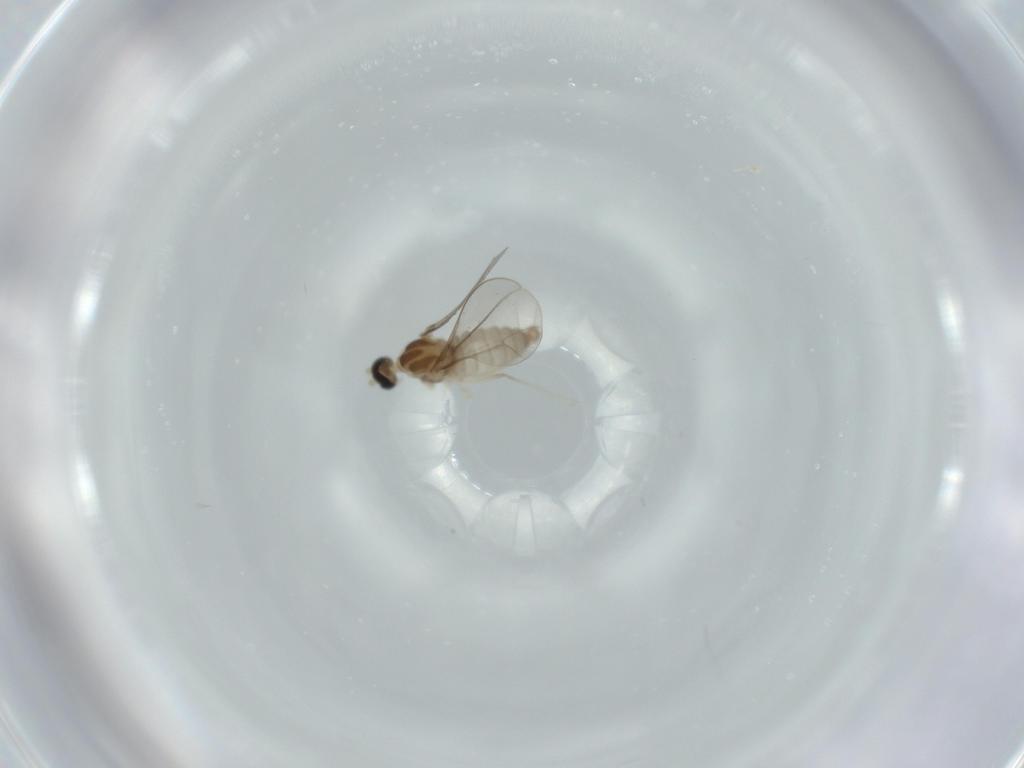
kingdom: Animalia
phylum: Arthropoda
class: Insecta
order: Diptera
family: Cecidomyiidae
